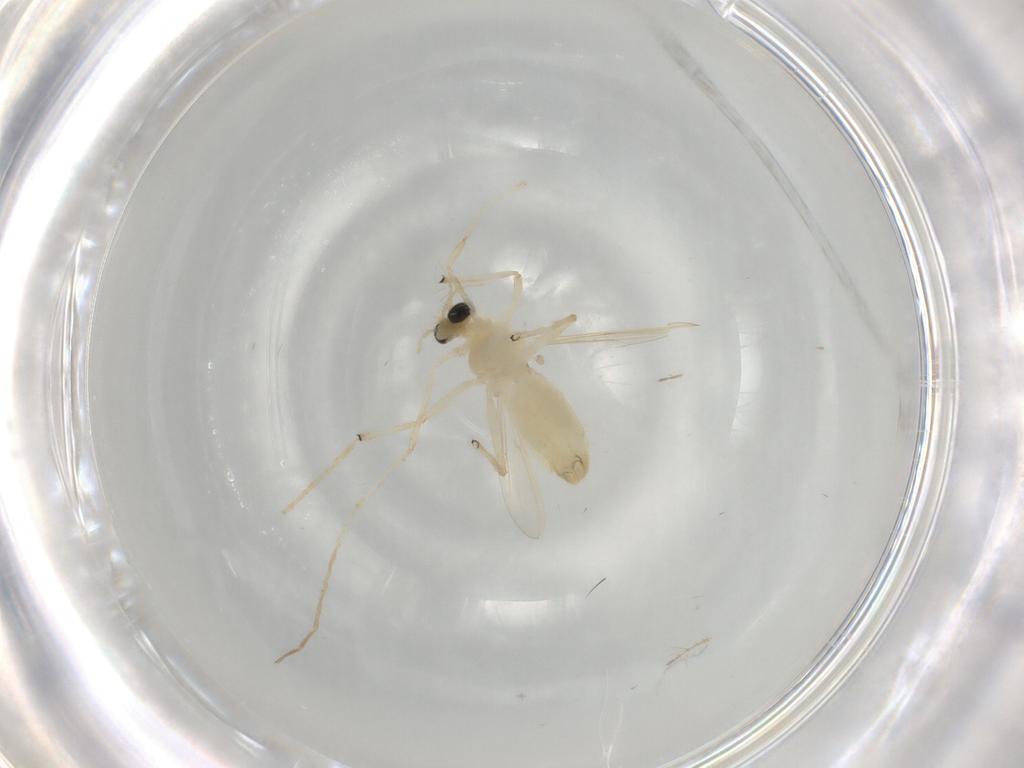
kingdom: Animalia
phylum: Arthropoda
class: Insecta
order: Diptera
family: Chironomidae
